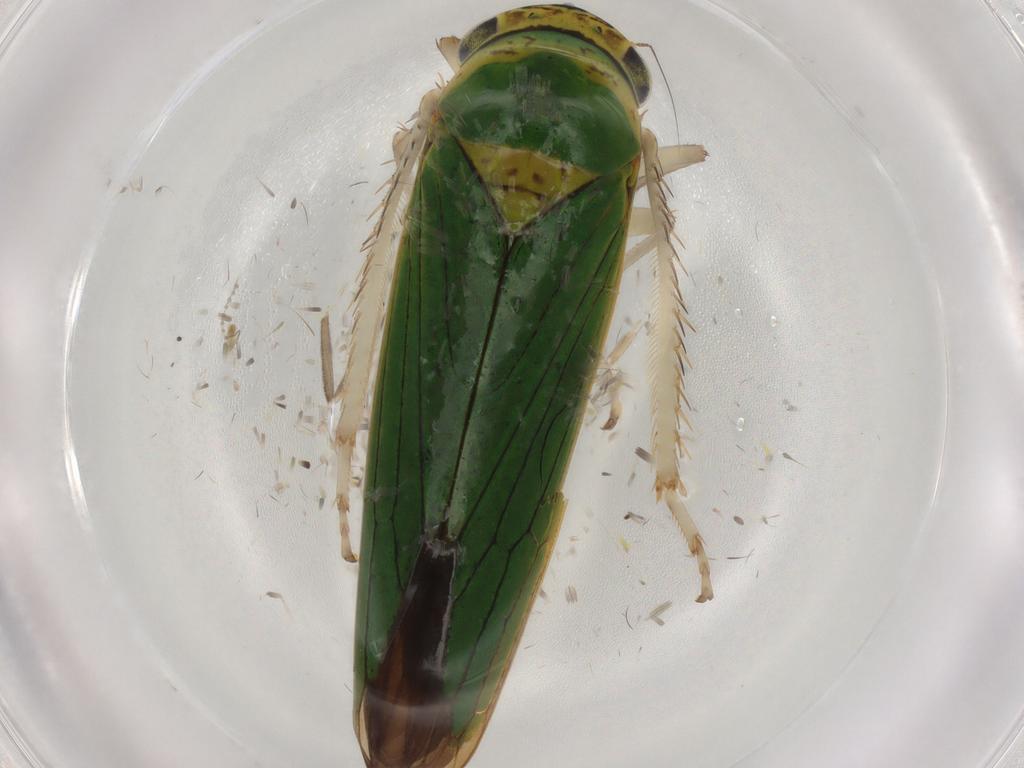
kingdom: Animalia
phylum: Arthropoda
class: Insecta
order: Hemiptera
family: Cicadellidae
